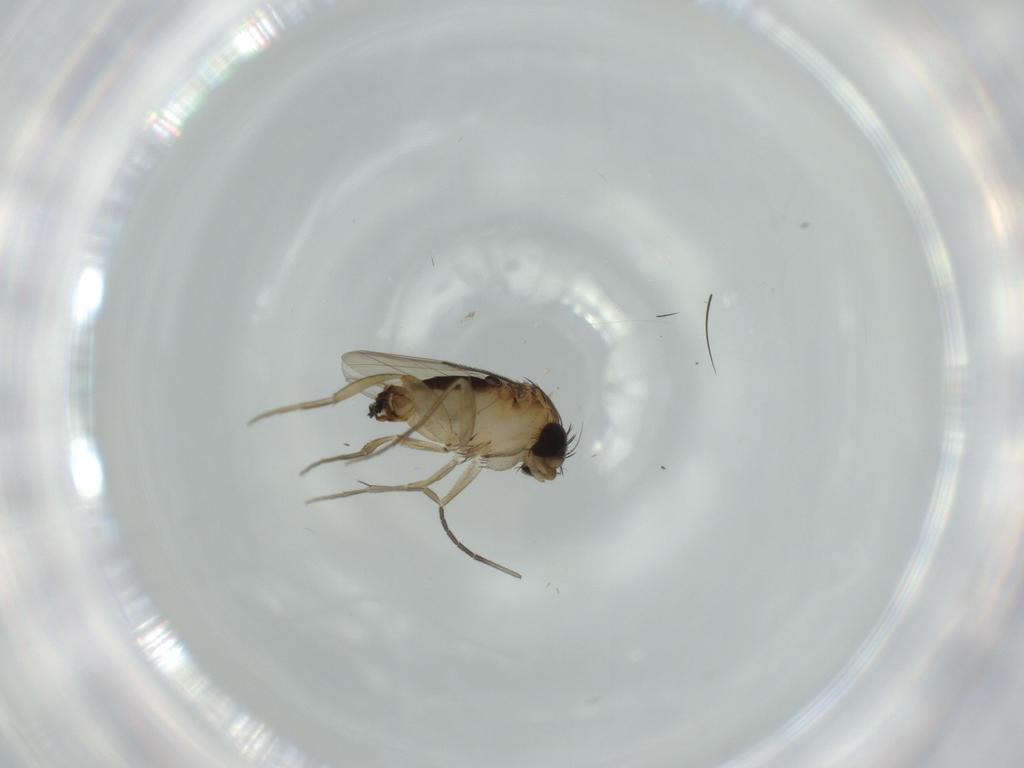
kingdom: Animalia
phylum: Arthropoda
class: Insecta
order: Diptera
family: Phoridae
